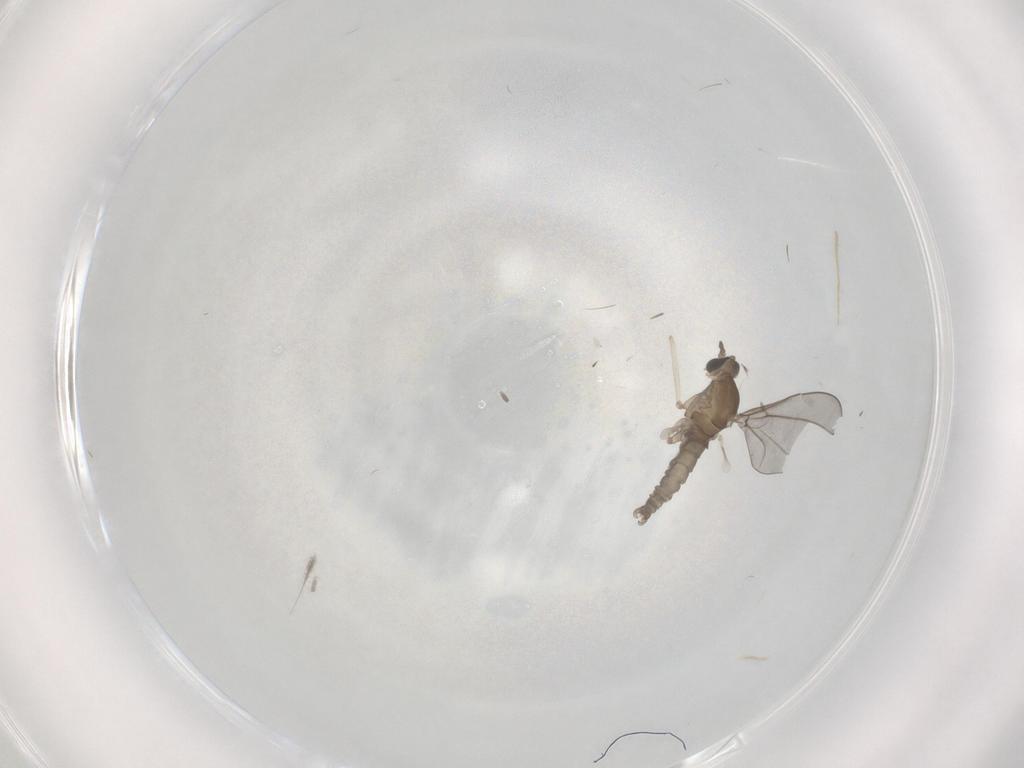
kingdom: Animalia
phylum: Arthropoda
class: Insecta
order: Diptera
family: Cecidomyiidae
